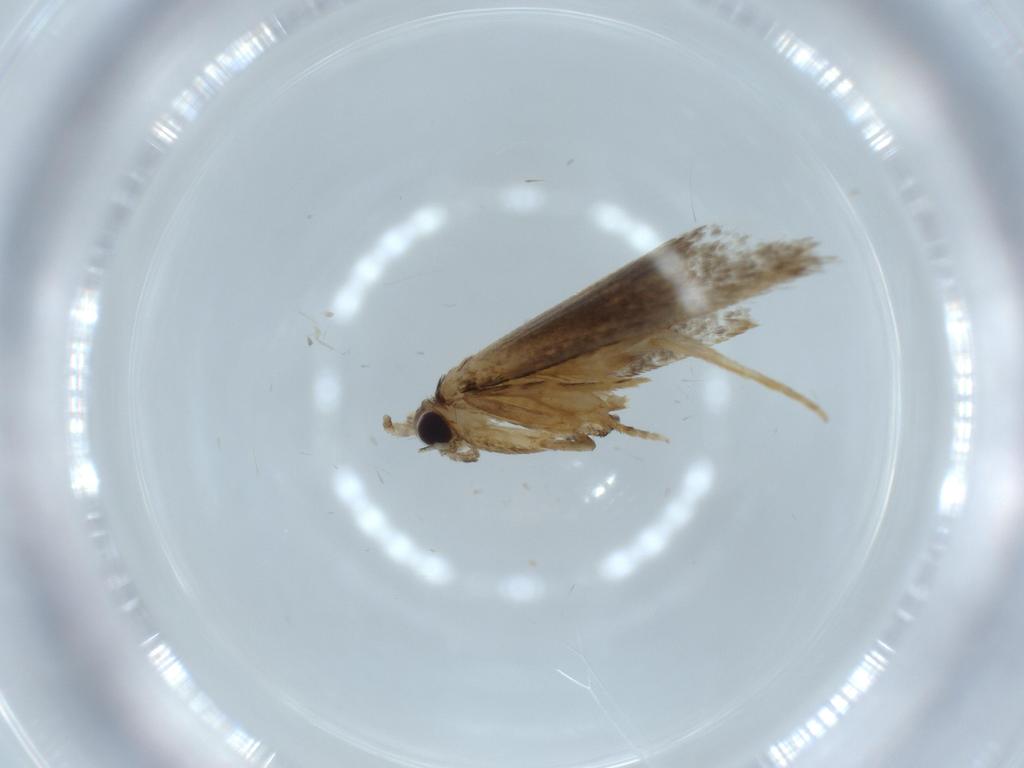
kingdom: Animalia
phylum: Arthropoda
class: Insecta
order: Lepidoptera
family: Tineidae
